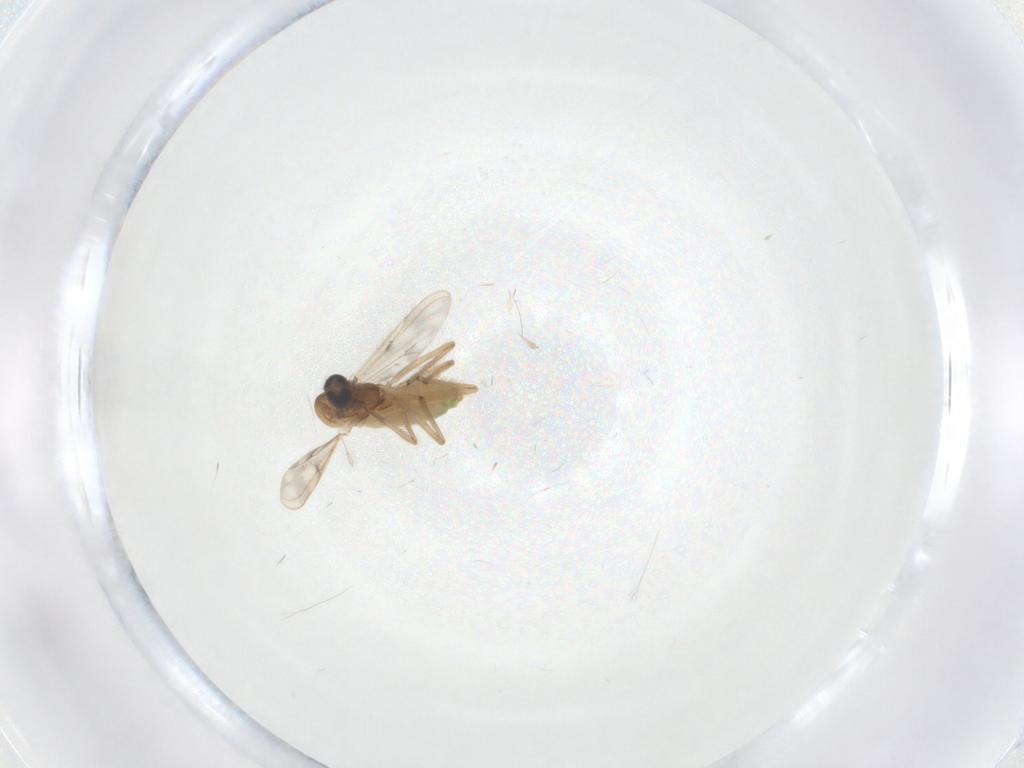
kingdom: Animalia
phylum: Arthropoda
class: Insecta
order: Diptera
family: Chironomidae
